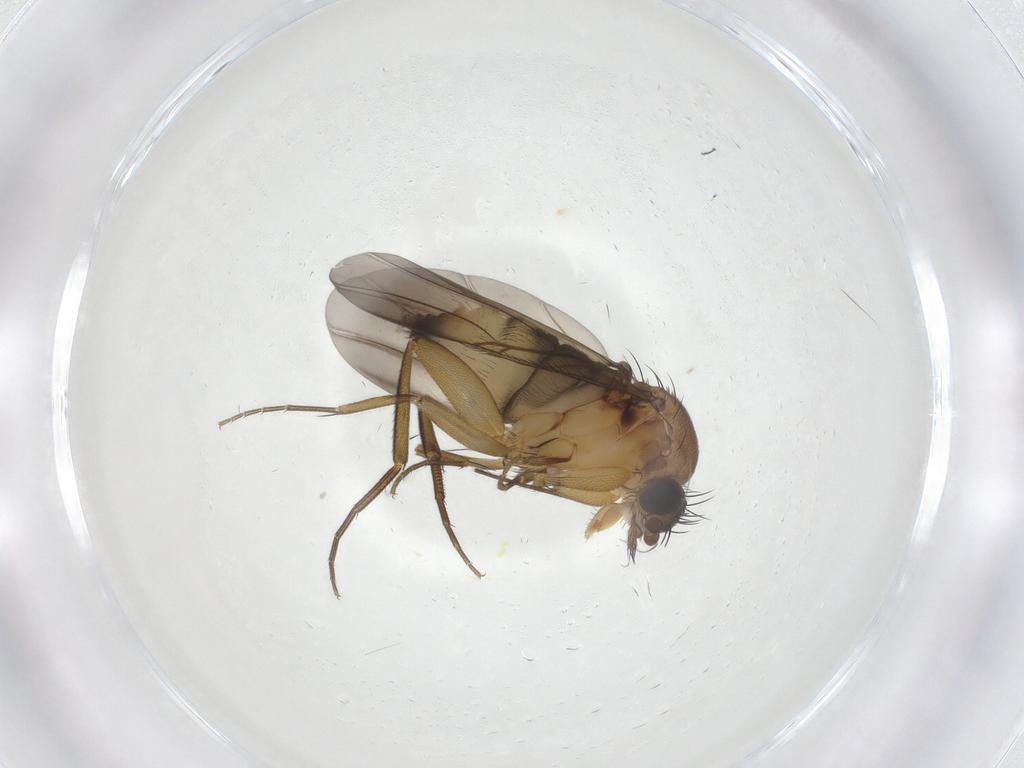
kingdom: Animalia
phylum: Arthropoda
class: Insecta
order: Diptera
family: Phoridae
